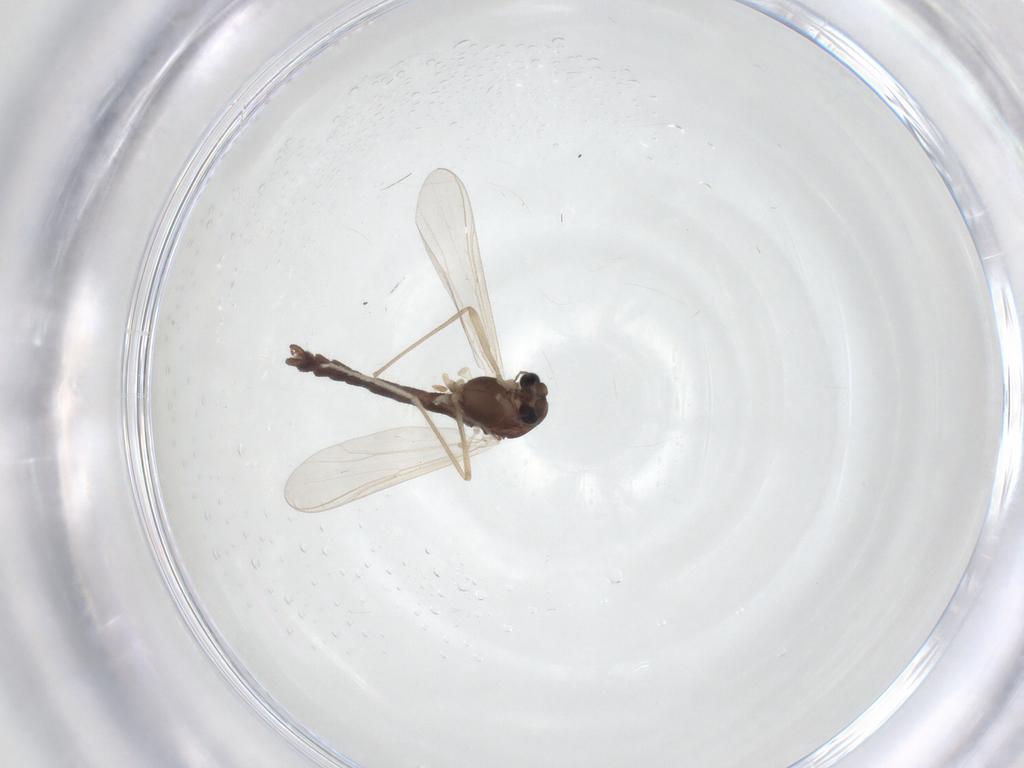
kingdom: Animalia
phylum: Arthropoda
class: Insecta
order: Diptera
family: Chironomidae
